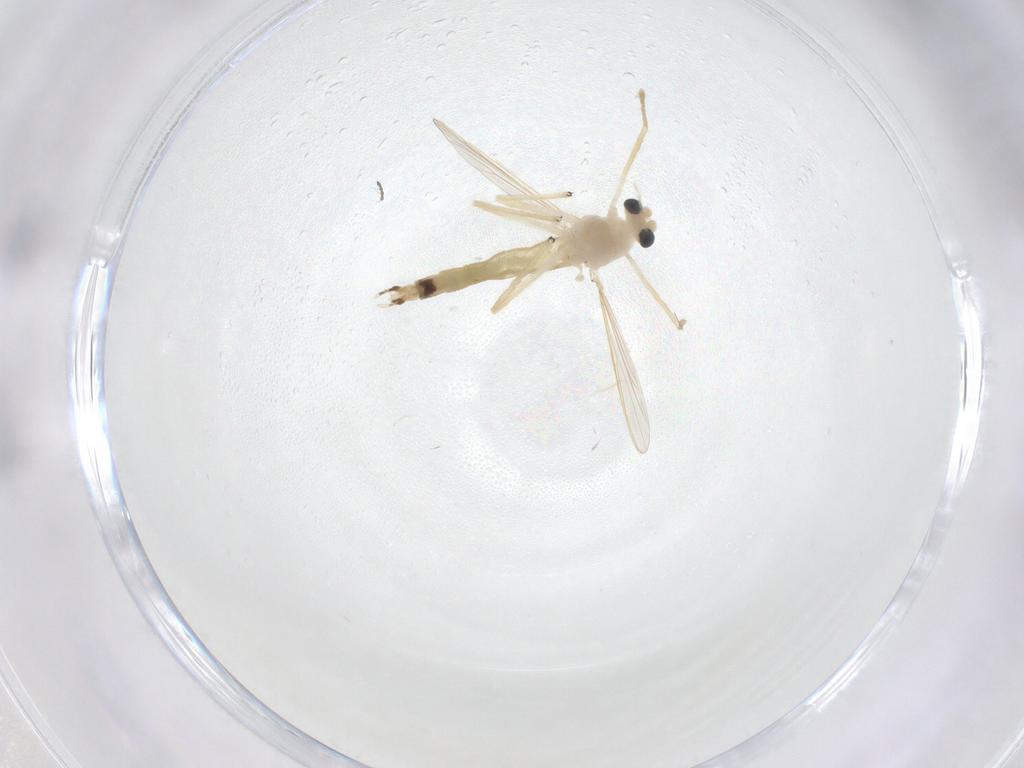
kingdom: Animalia
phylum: Arthropoda
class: Insecta
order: Diptera
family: Chironomidae
